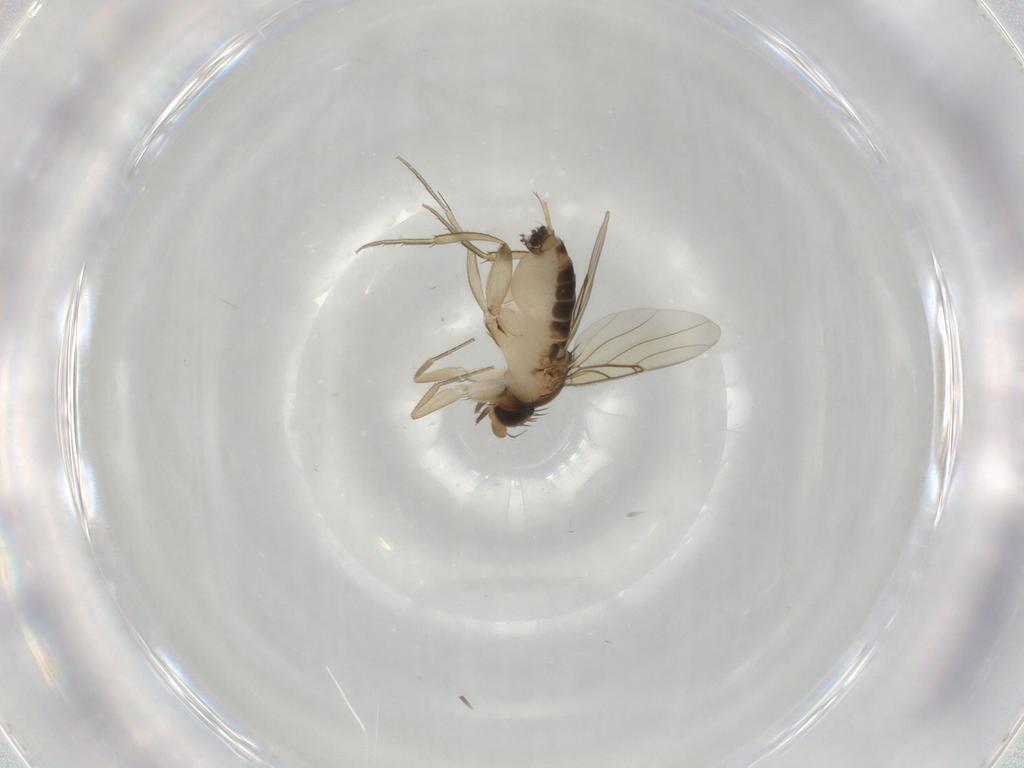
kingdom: Animalia
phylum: Arthropoda
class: Insecta
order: Diptera
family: Phoridae
